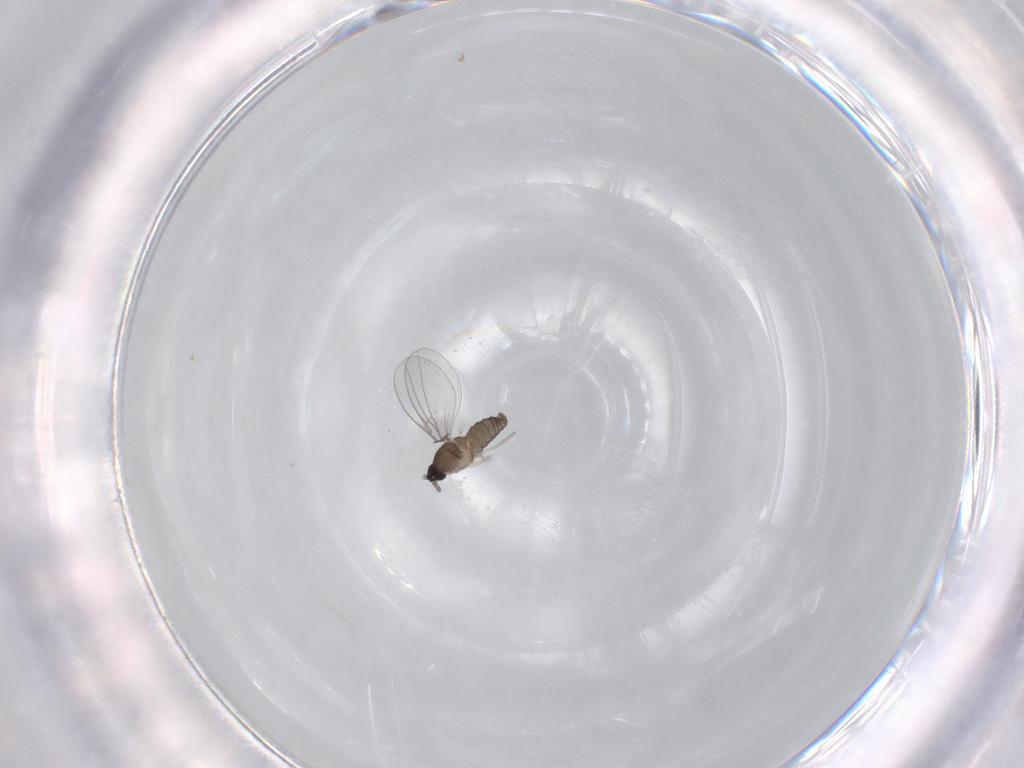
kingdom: Animalia
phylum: Arthropoda
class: Insecta
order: Diptera
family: Cecidomyiidae
